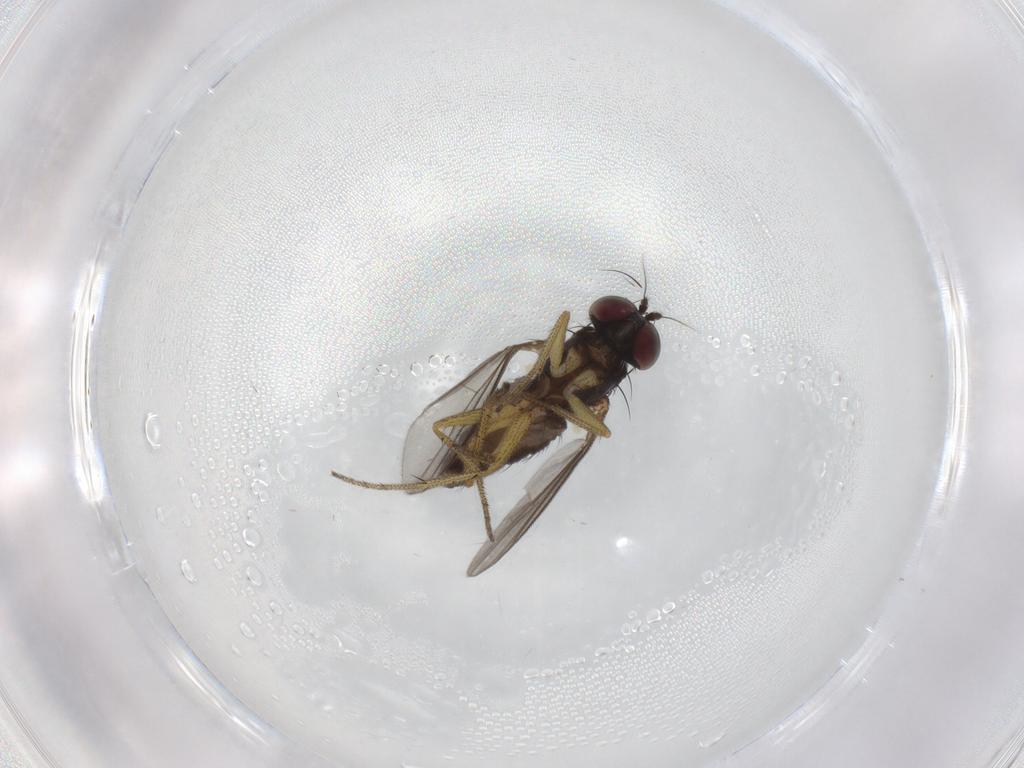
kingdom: Animalia
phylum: Arthropoda
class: Insecta
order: Diptera
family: Dolichopodidae
